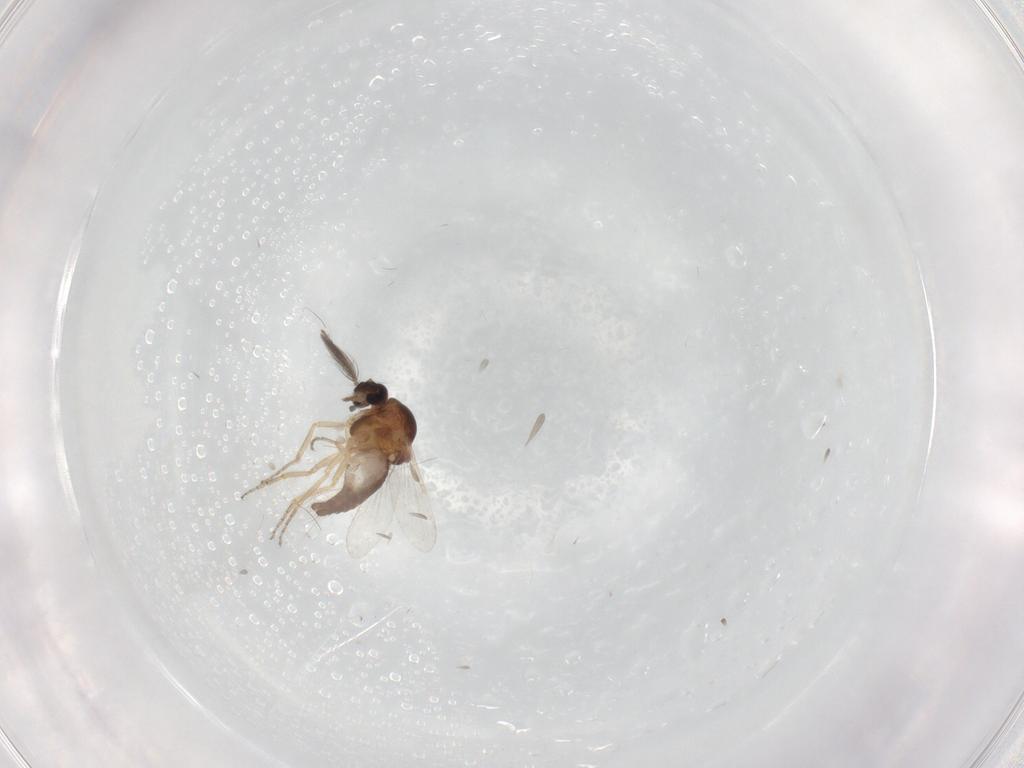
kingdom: Animalia
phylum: Arthropoda
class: Insecta
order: Diptera
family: Ceratopogonidae
